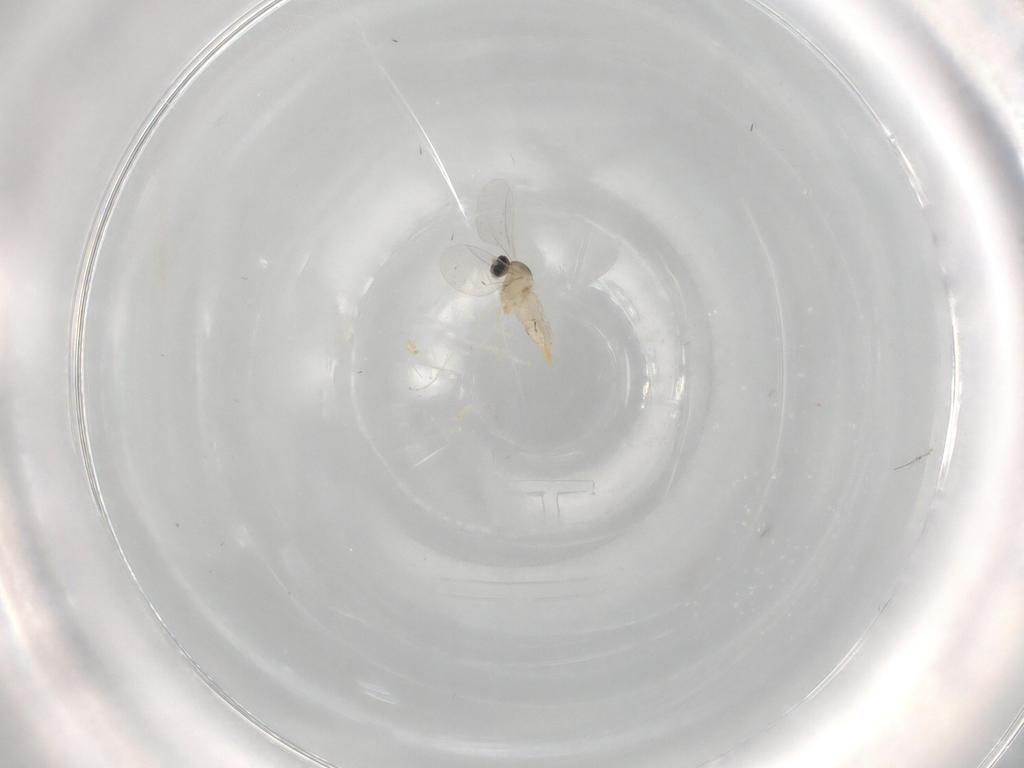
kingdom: Animalia
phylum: Arthropoda
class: Insecta
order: Diptera
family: Cecidomyiidae
